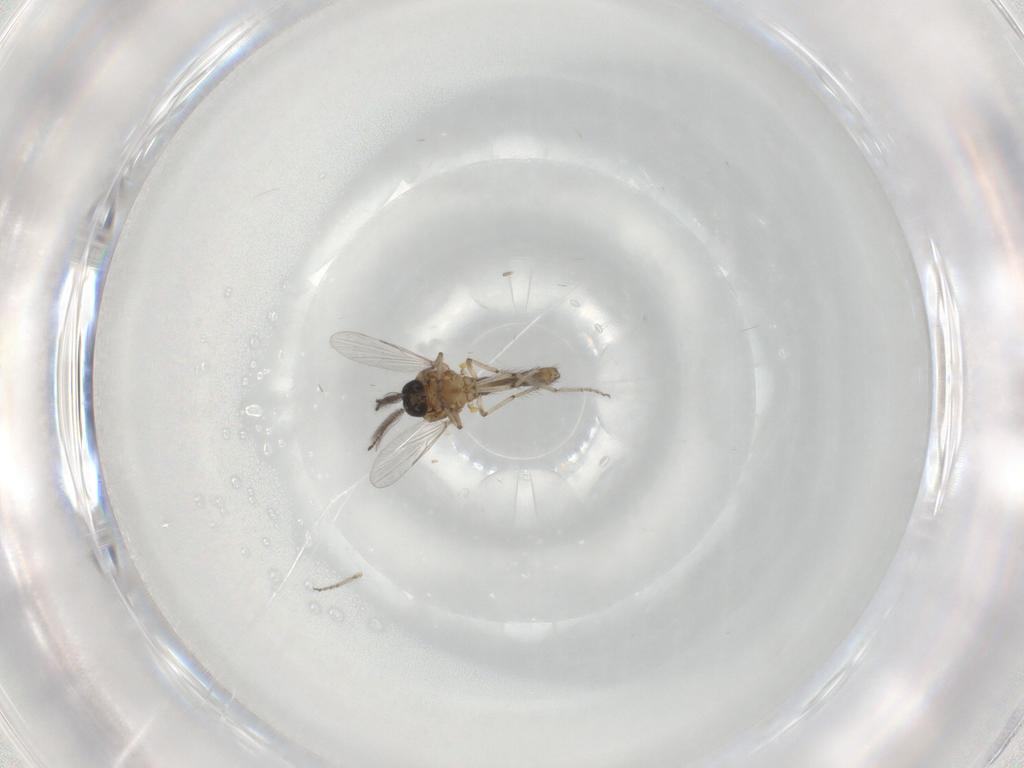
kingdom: Animalia
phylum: Arthropoda
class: Insecta
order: Diptera
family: Ceratopogonidae
